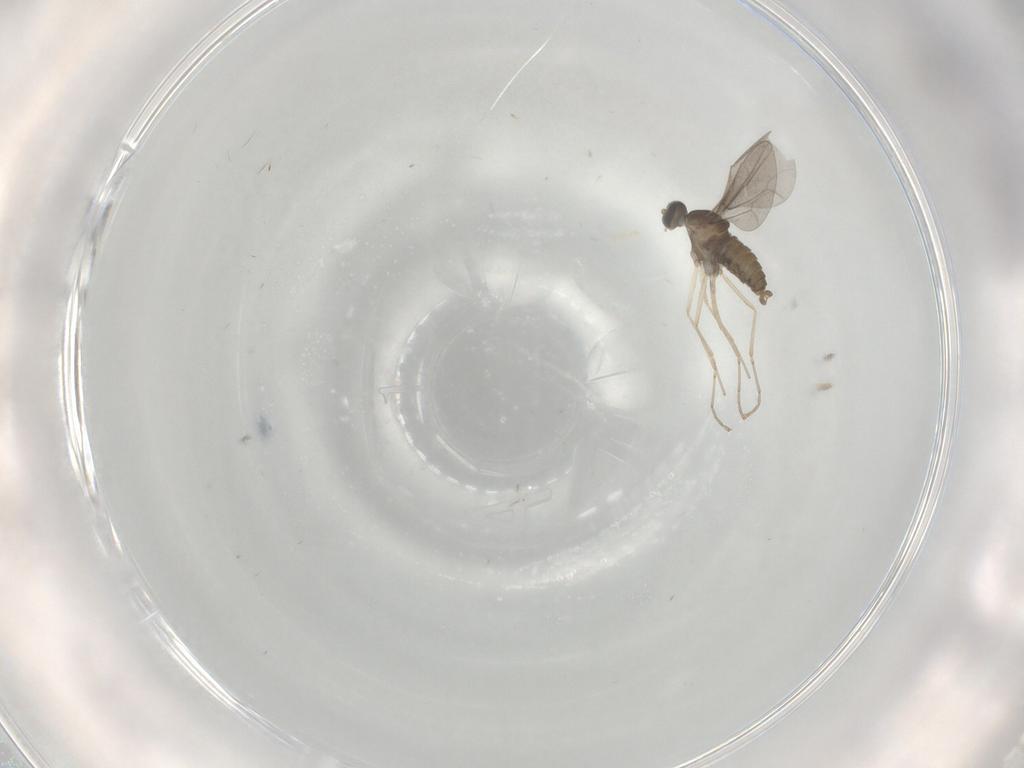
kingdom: Animalia
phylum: Arthropoda
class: Insecta
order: Diptera
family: Cecidomyiidae
